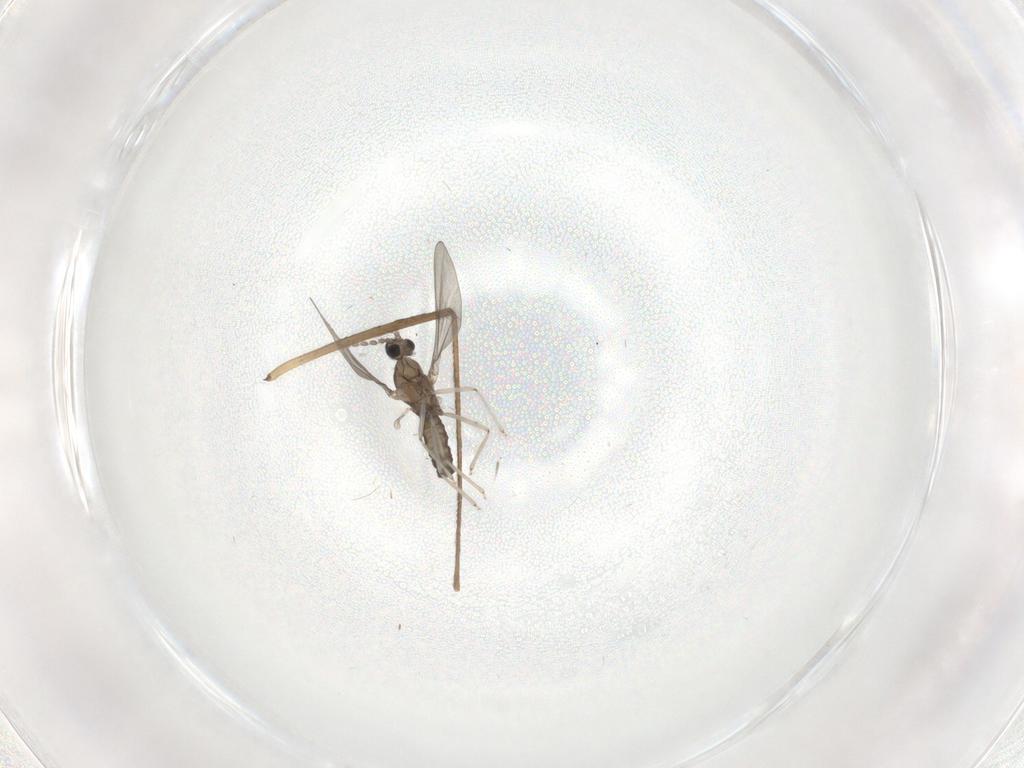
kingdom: Animalia
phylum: Arthropoda
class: Insecta
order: Diptera
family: Limoniidae
